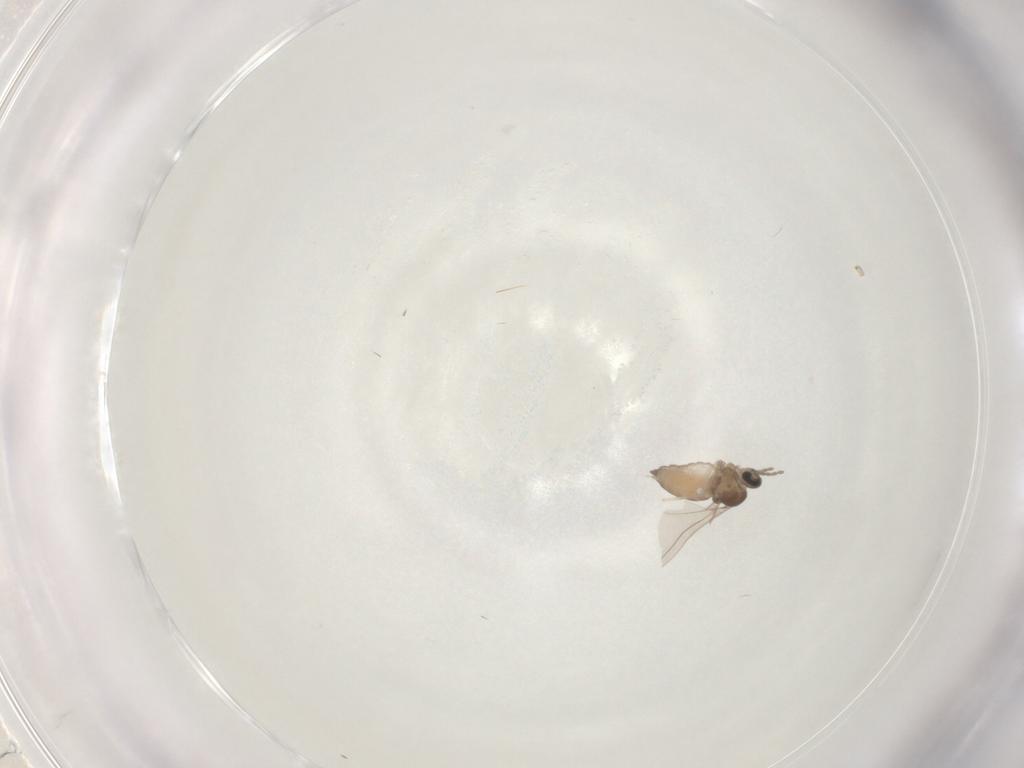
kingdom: Animalia
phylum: Arthropoda
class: Insecta
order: Diptera
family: Cecidomyiidae
